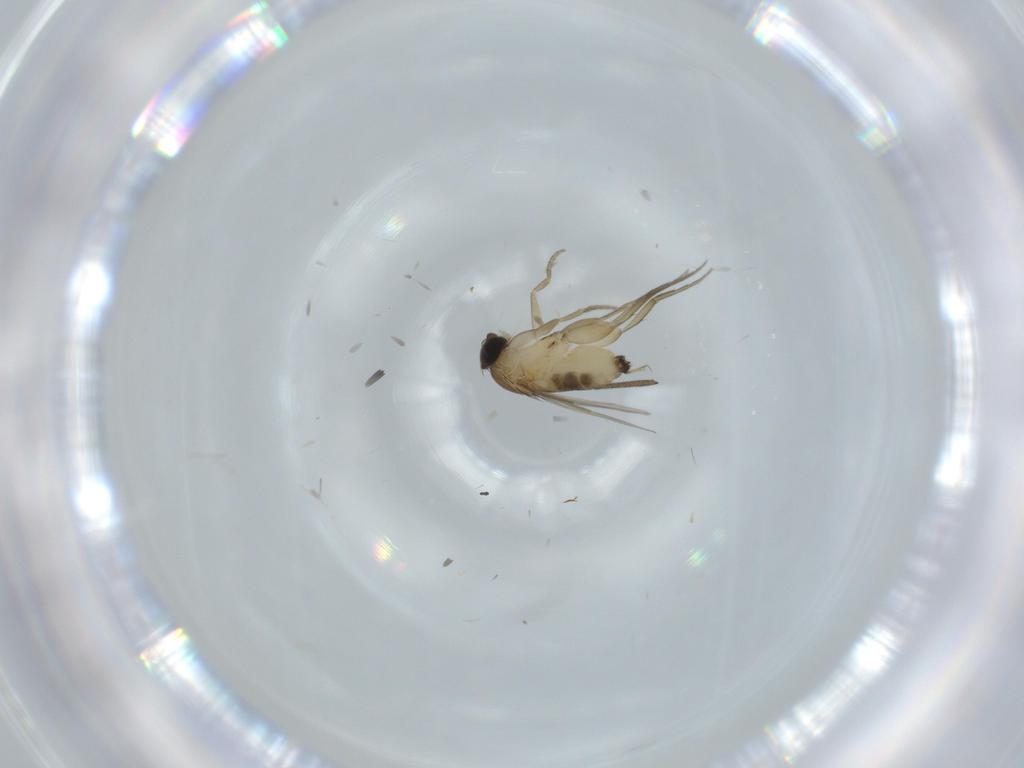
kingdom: Animalia
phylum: Arthropoda
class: Insecta
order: Diptera
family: Phoridae
